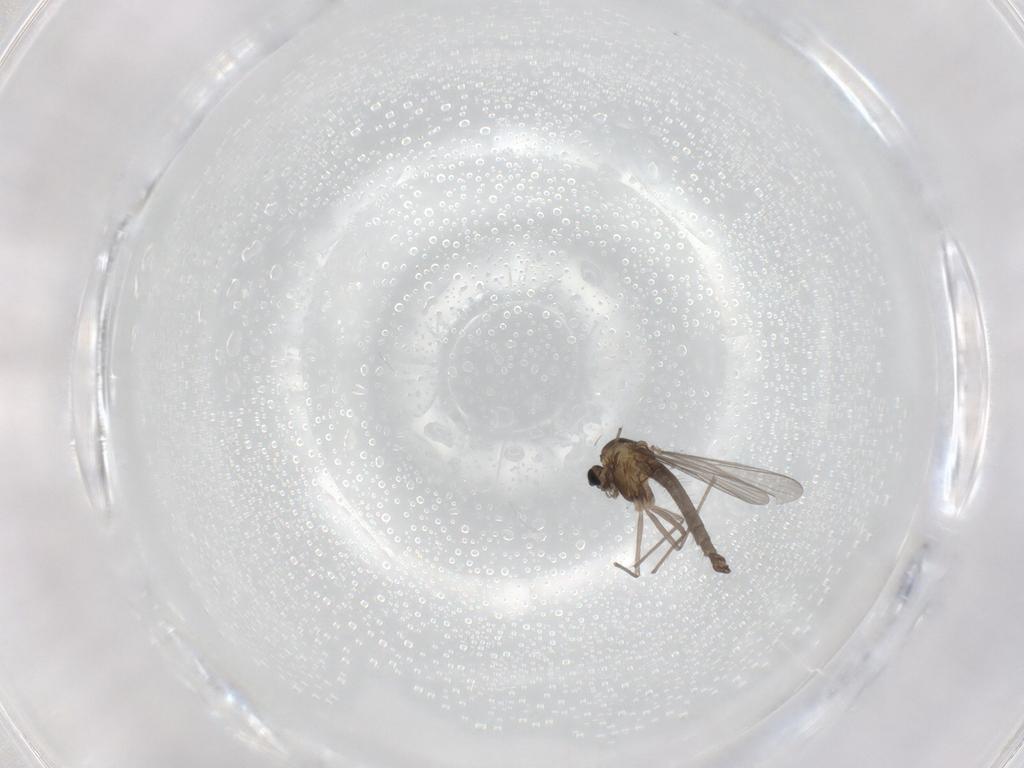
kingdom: Animalia
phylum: Arthropoda
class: Insecta
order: Diptera
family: Cecidomyiidae
